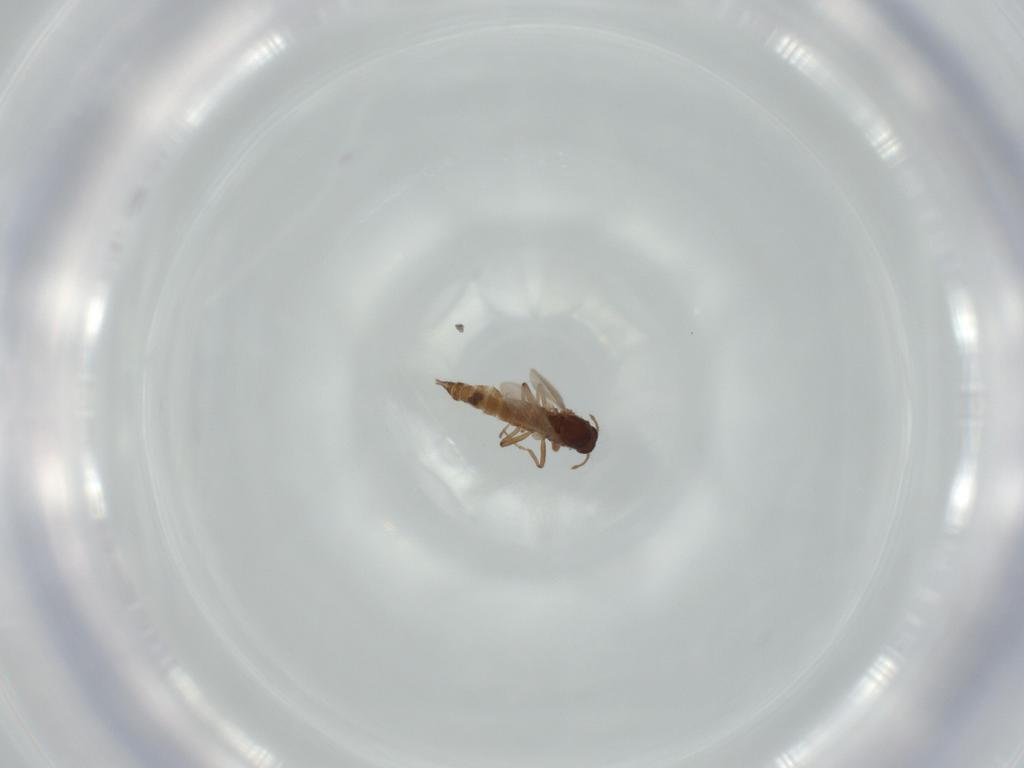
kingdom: Animalia
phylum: Arthropoda
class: Insecta
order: Diptera
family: Ceratopogonidae
